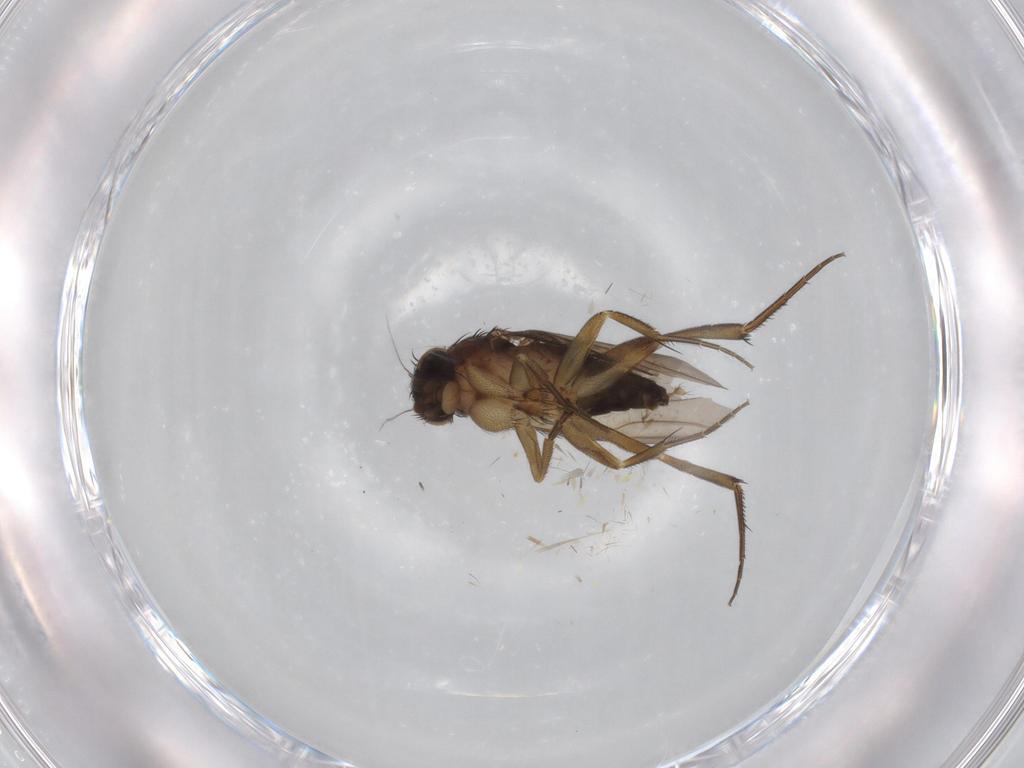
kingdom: Animalia
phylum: Arthropoda
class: Insecta
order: Diptera
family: Phoridae
